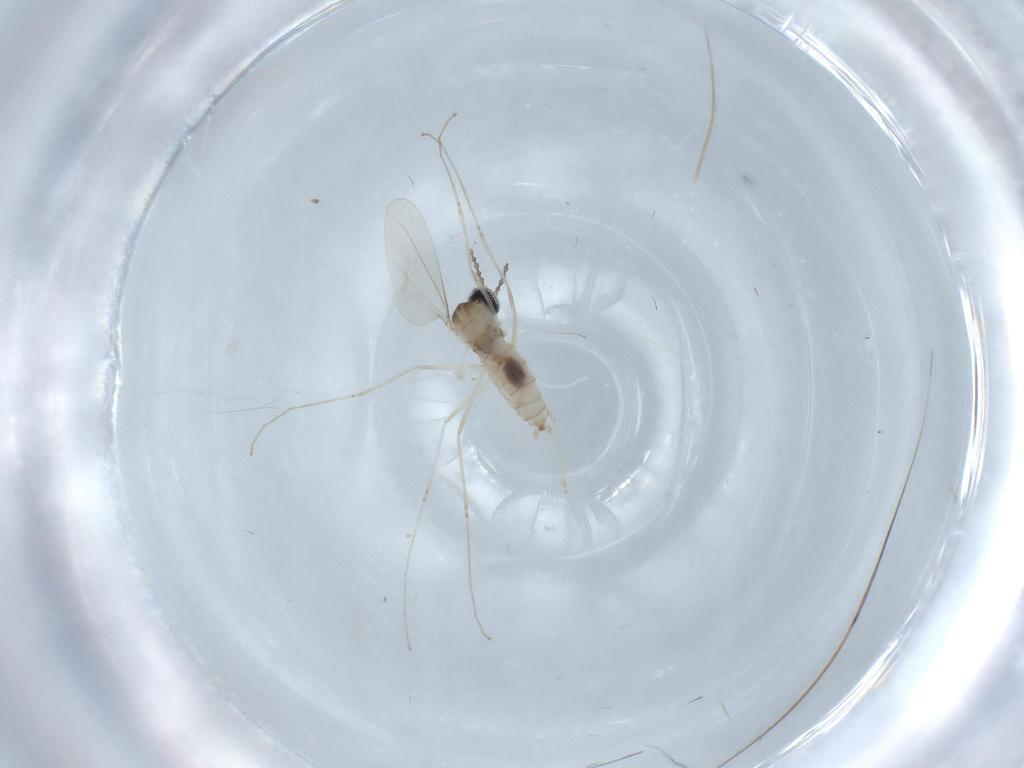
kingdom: Animalia
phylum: Arthropoda
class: Insecta
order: Diptera
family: Cecidomyiidae
